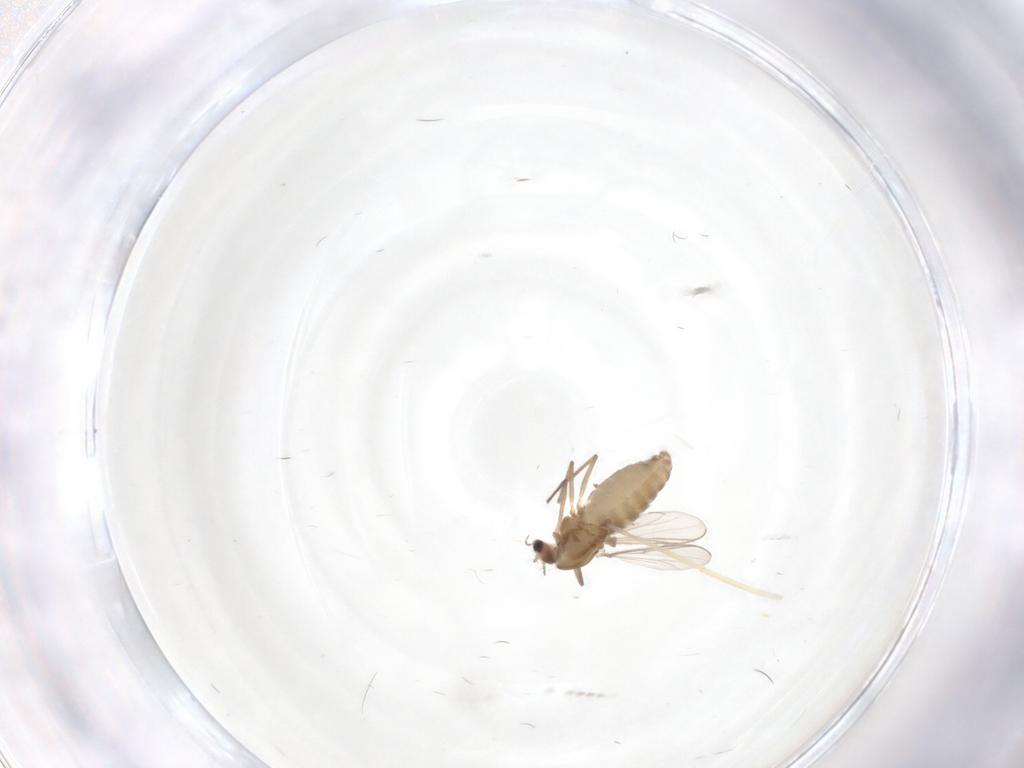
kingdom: Animalia
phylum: Arthropoda
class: Insecta
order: Diptera
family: Chironomidae
